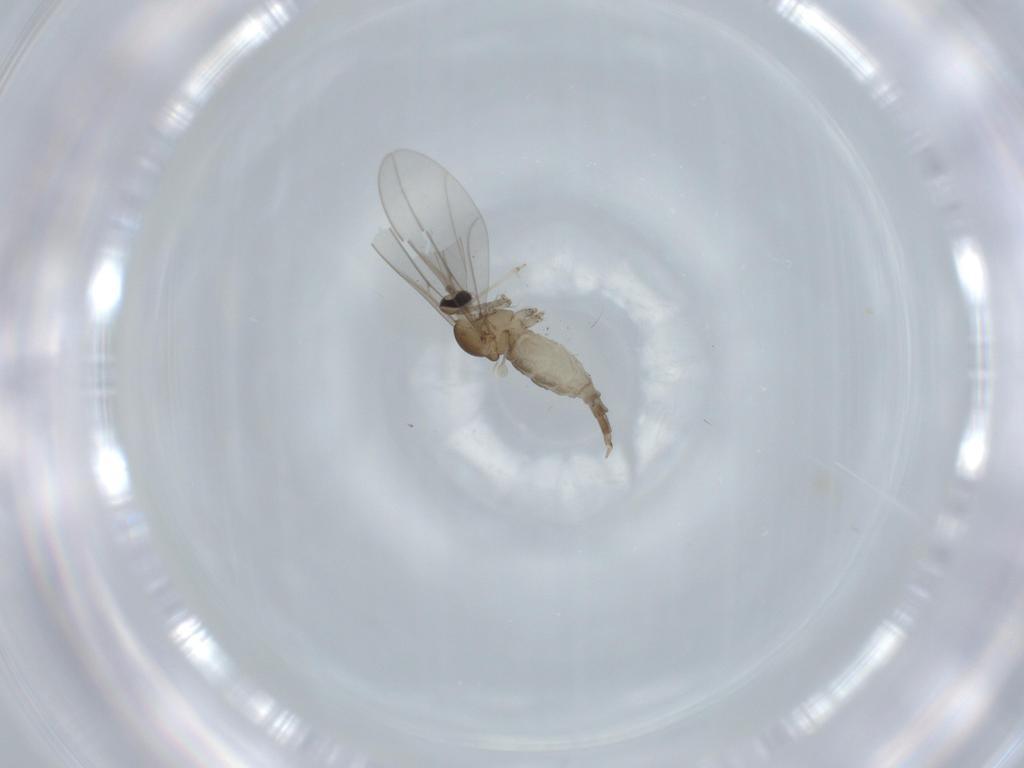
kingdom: Animalia
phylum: Arthropoda
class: Insecta
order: Diptera
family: Cecidomyiidae
